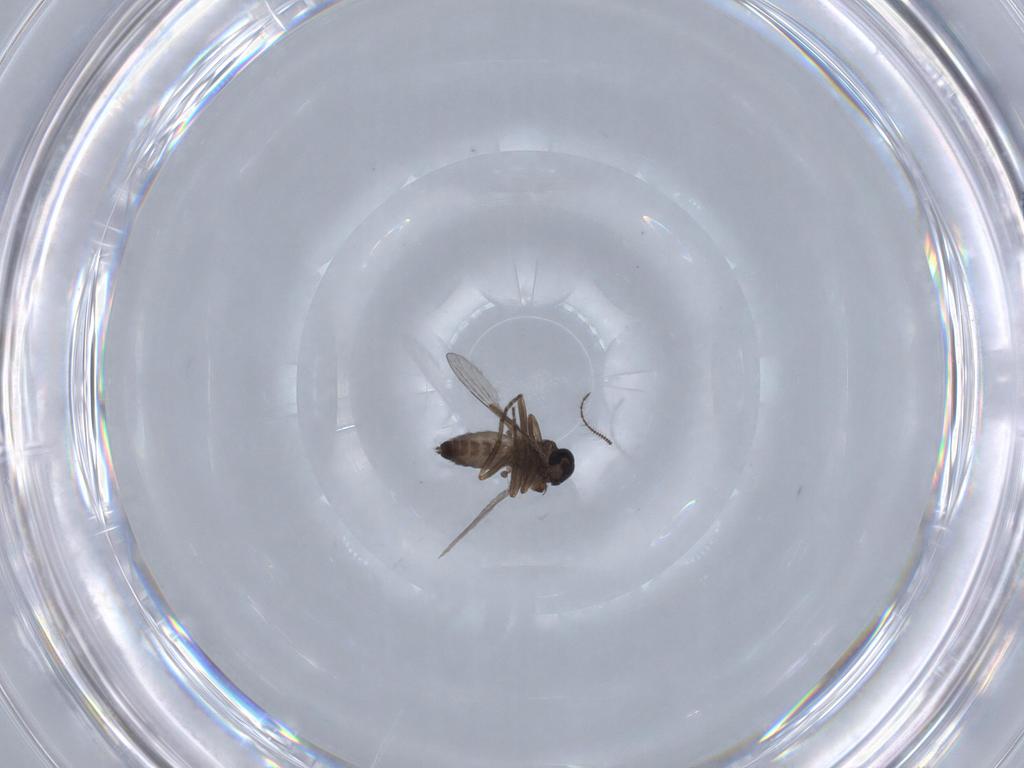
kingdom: Animalia
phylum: Arthropoda
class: Insecta
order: Diptera
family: Ceratopogonidae
